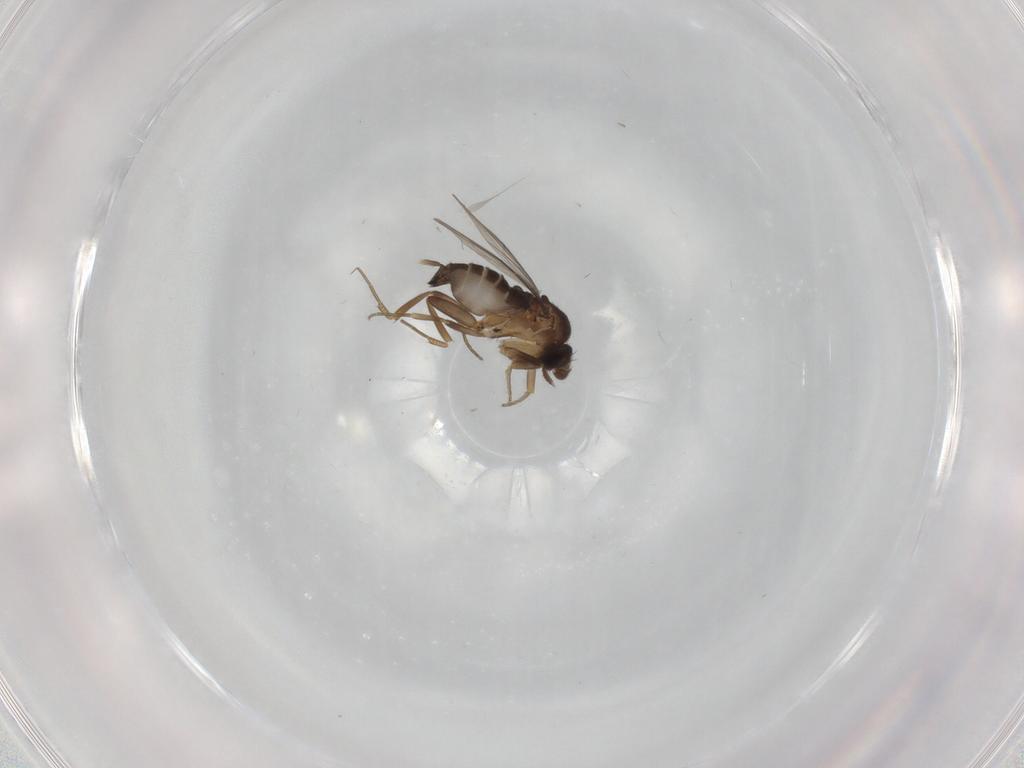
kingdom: Animalia
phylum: Arthropoda
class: Insecta
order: Diptera
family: Phoridae
